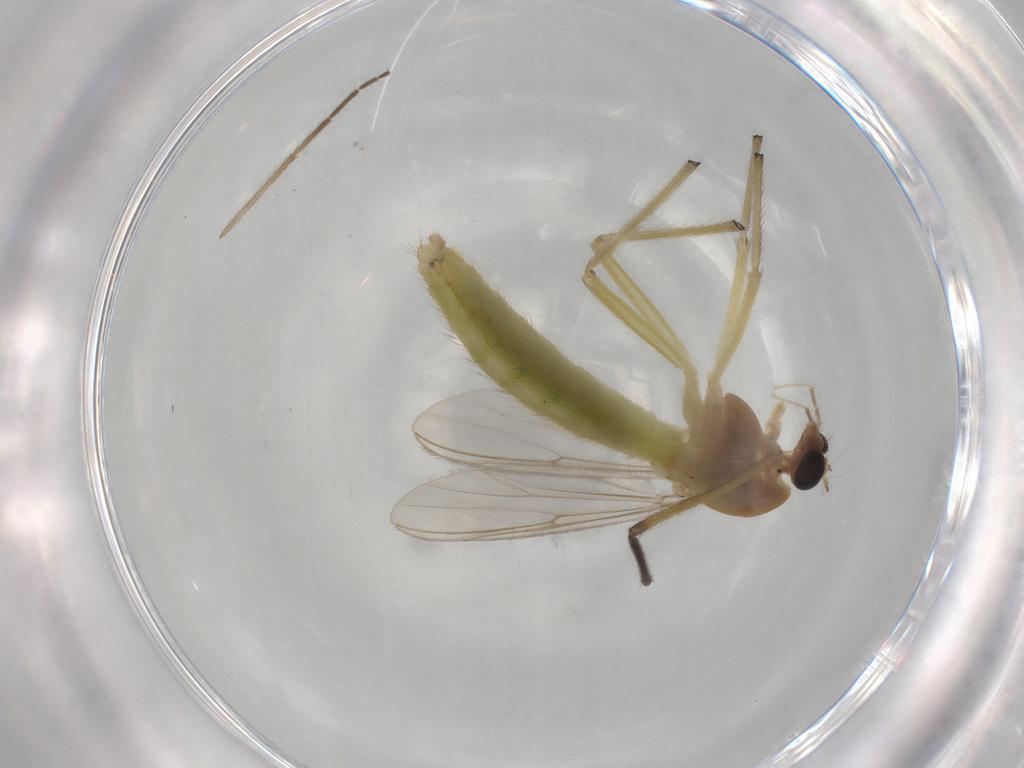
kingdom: Animalia
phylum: Arthropoda
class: Insecta
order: Diptera
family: Chironomidae
